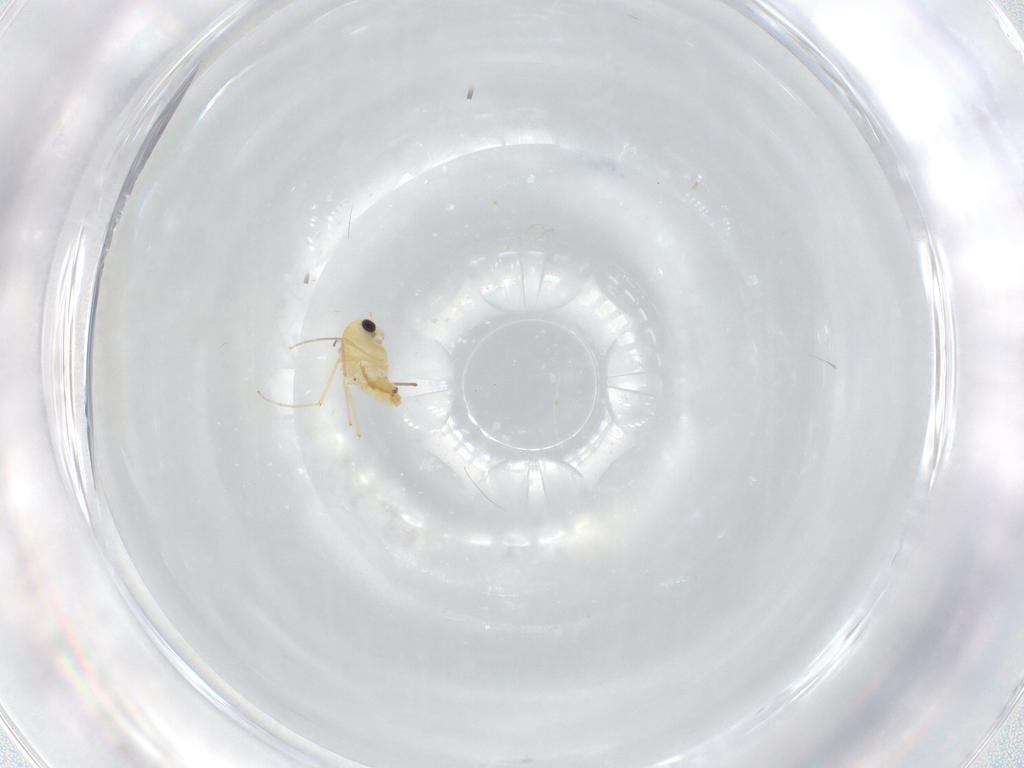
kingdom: Animalia
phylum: Arthropoda
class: Insecta
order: Diptera
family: Chironomidae
